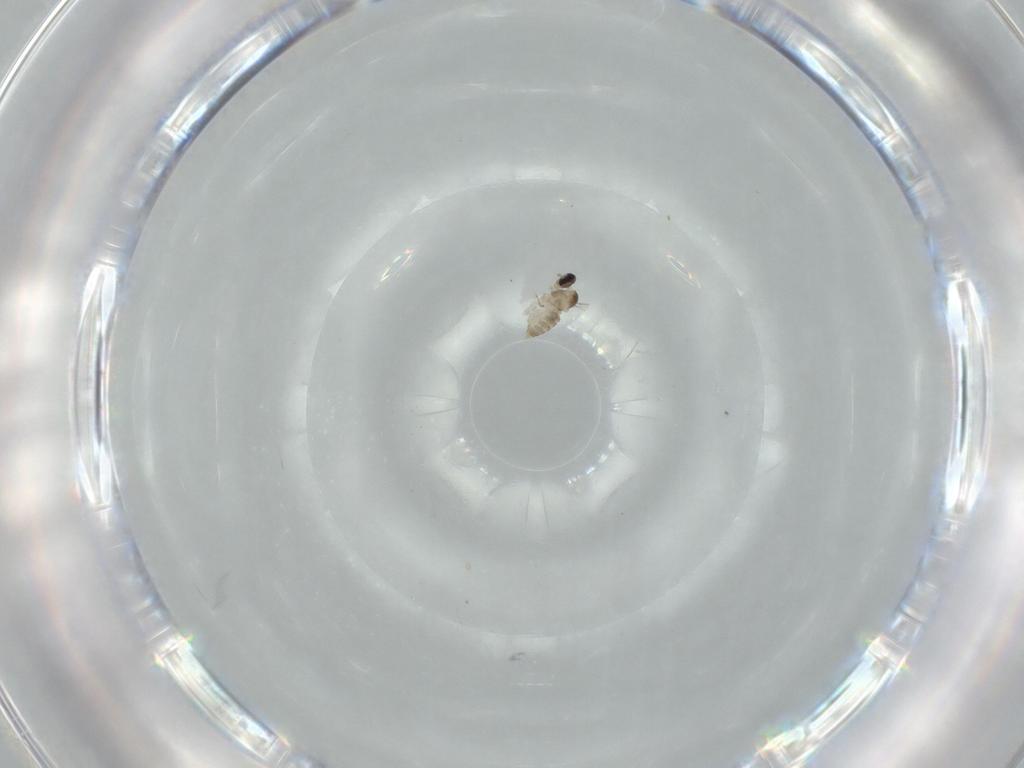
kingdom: Animalia
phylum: Arthropoda
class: Insecta
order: Diptera
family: Cecidomyiidae
